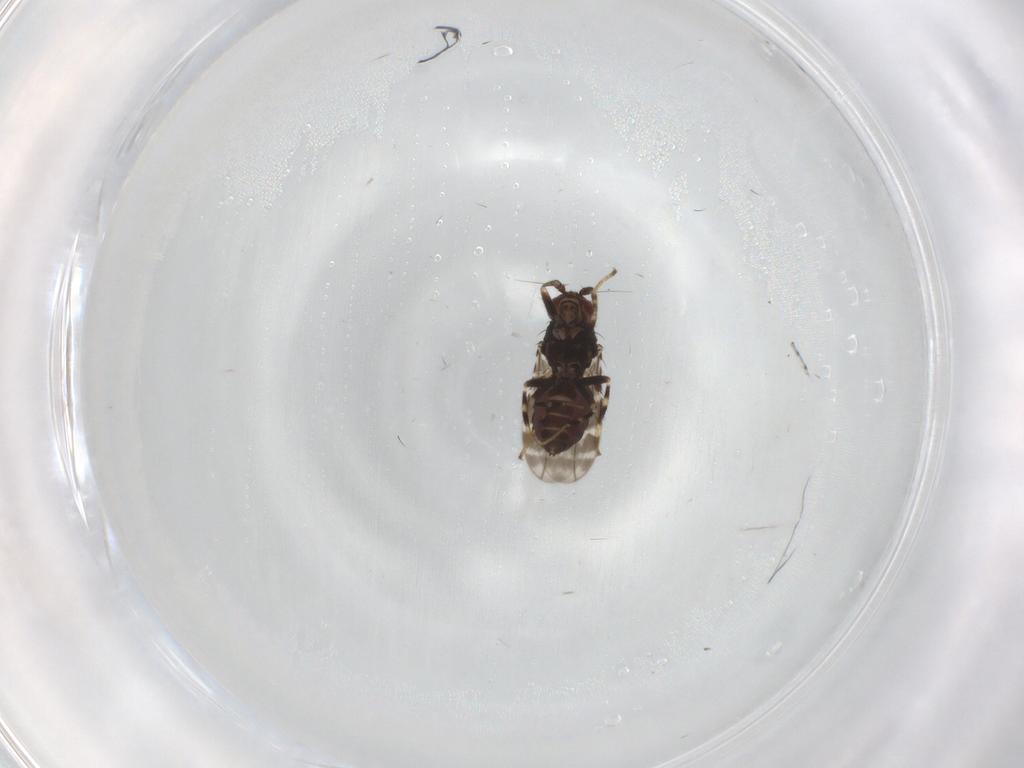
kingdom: Animalia
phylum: Arthropoda
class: Insecta
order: Diptera
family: Sphaeroceridae
